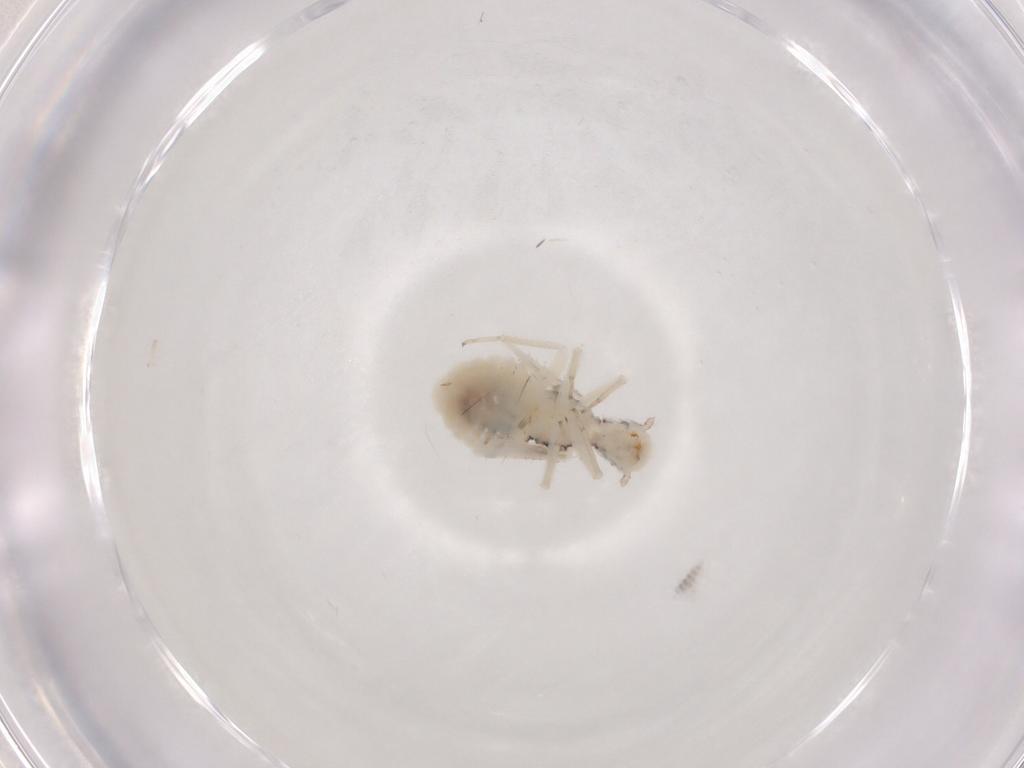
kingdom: Animalia
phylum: Arthropoda
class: Insecta
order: Psocodea
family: Caeciliusidae
